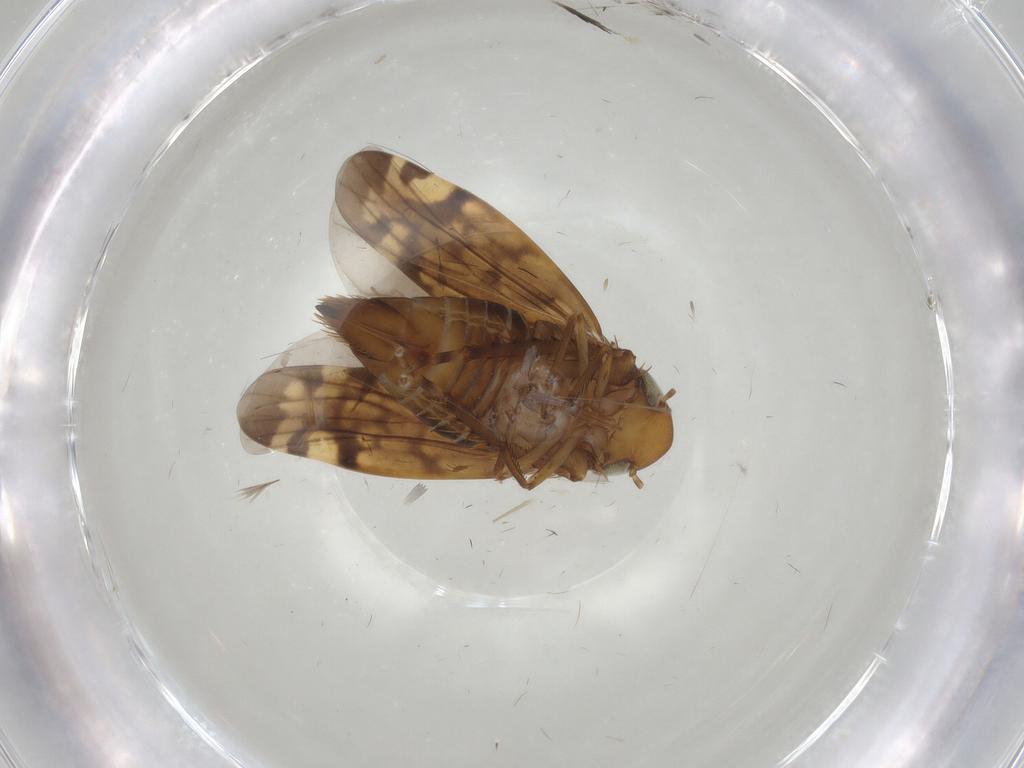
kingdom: Animalia
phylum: Arthropoda
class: Insecta
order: Hemiptera
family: Cicadellidae
